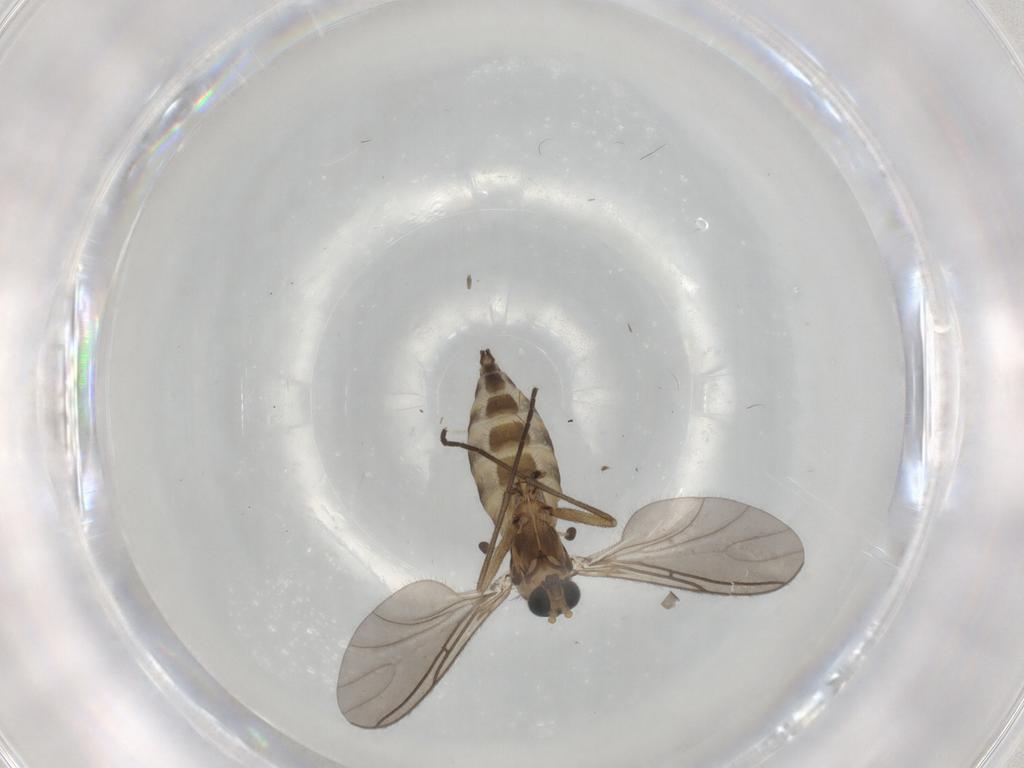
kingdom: Animalia
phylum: Arthropoda
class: Insecta
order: Diptera
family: Sciaridae
